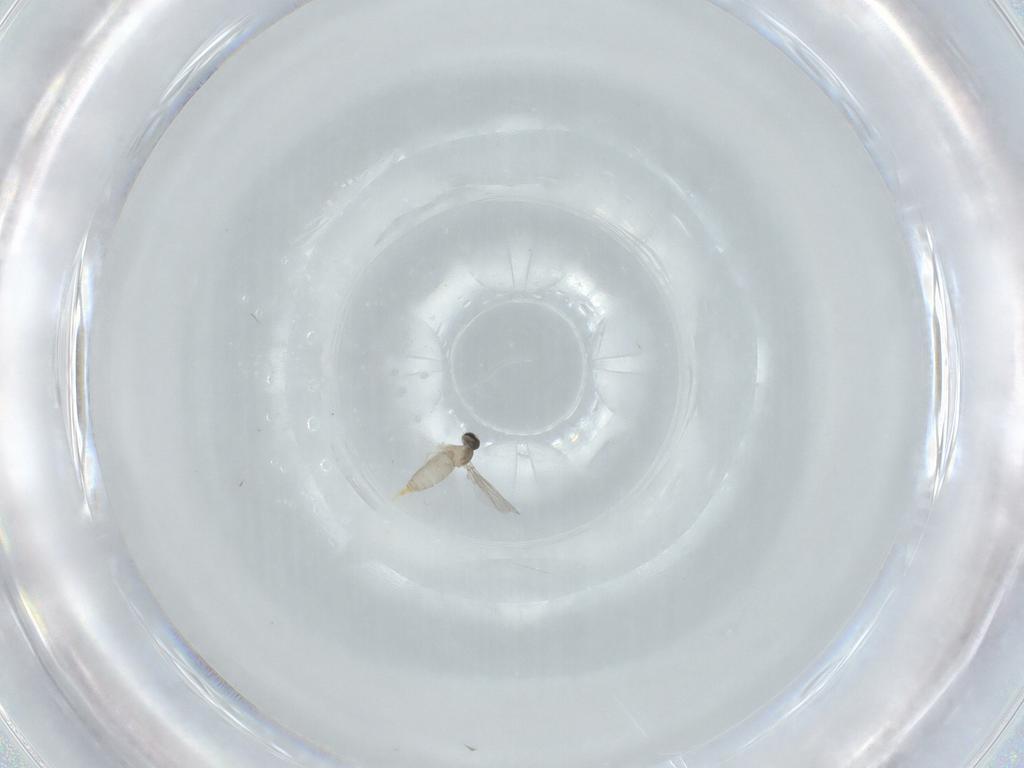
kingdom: Animalia
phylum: Arthropoda
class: Insecta
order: Diptera
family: Cecidomyiidae
